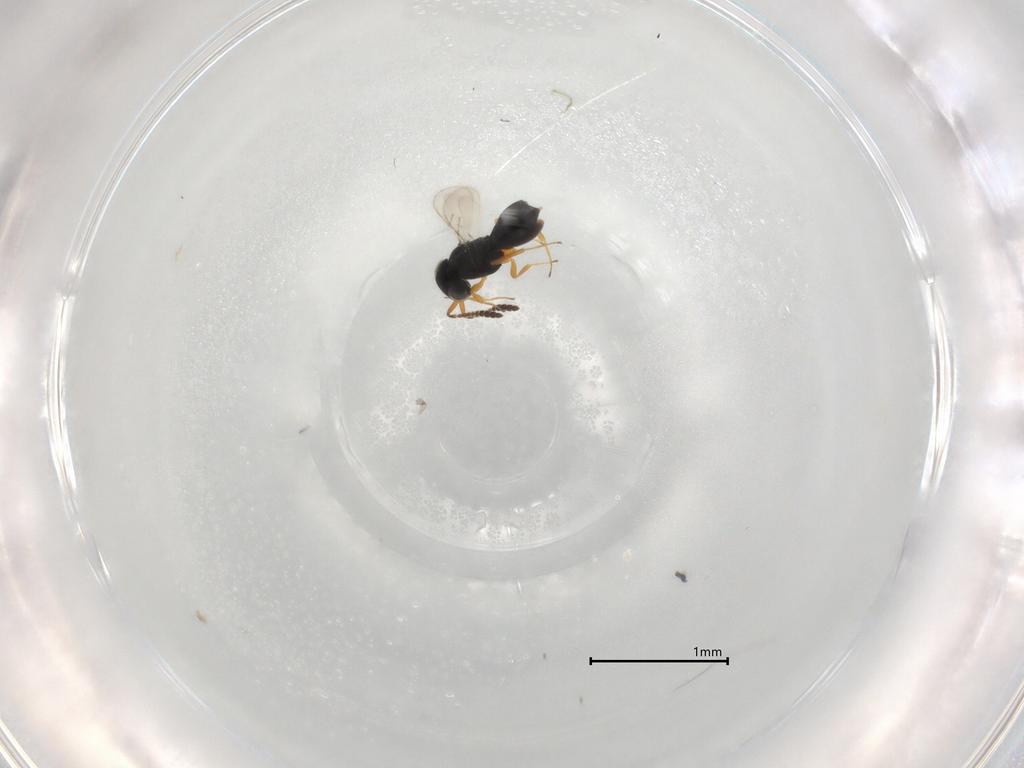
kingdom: Animalia
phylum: Arthropoda
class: Insecta
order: Hymenoptera
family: Scelionidae
